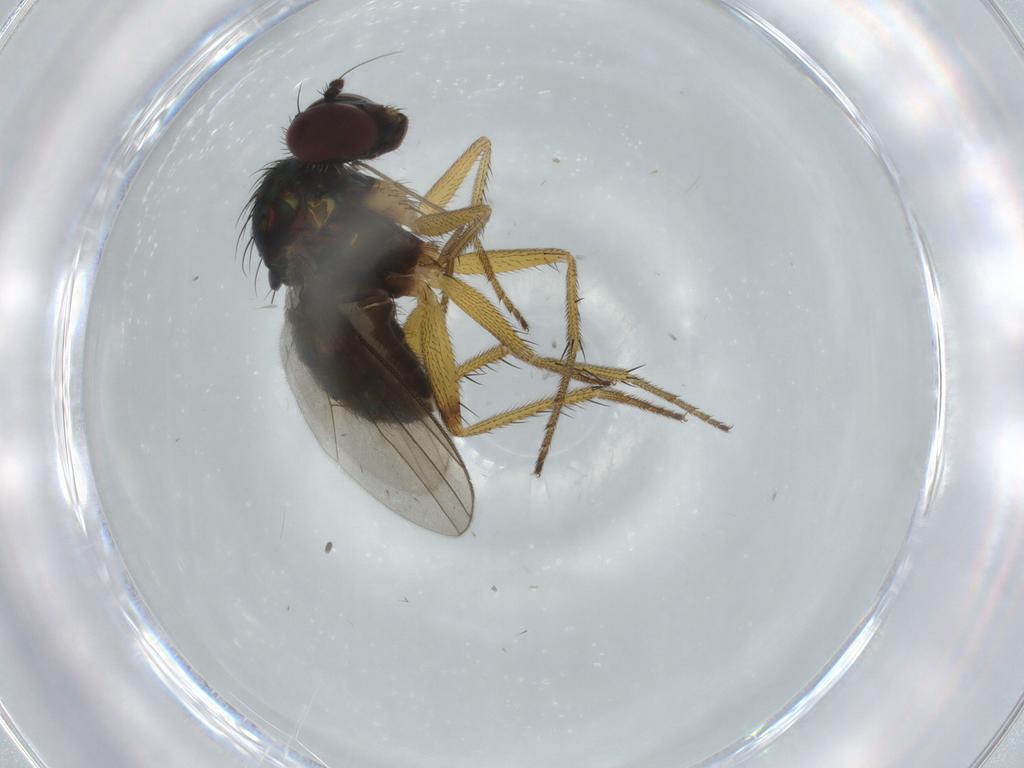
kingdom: Animalia
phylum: Arthropoda
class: Insecta
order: Diptera
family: Dolichopodidae
